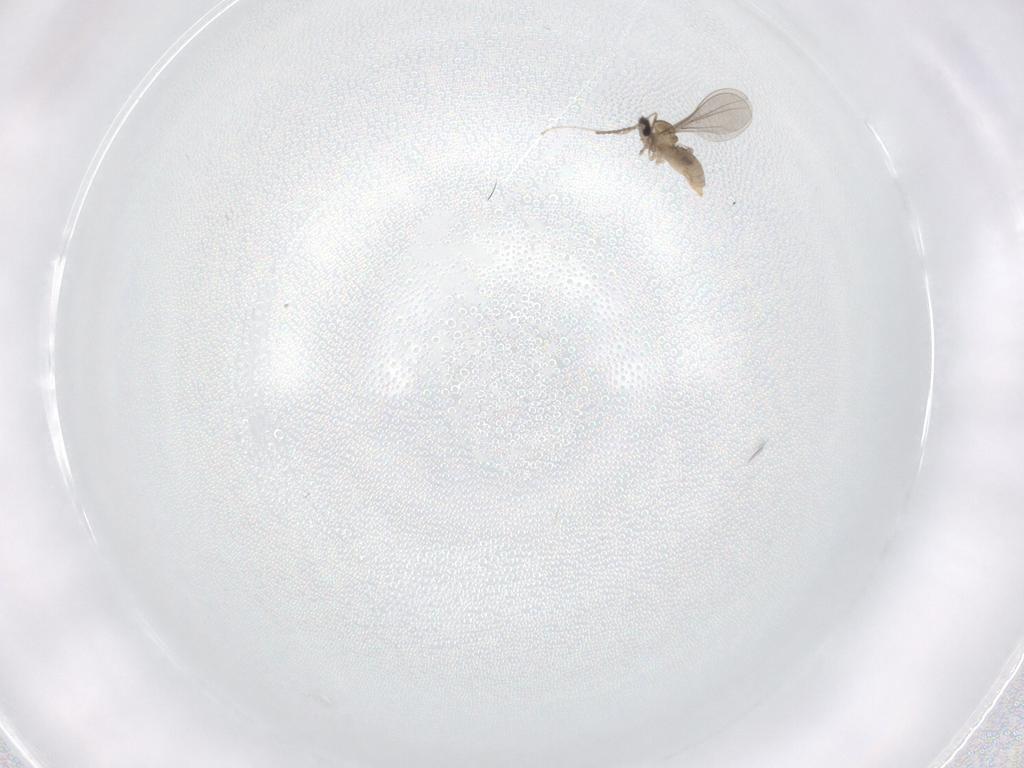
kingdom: Animalia
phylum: Arthropoda
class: Insecta
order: Diptera
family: Cecidomyiidae
